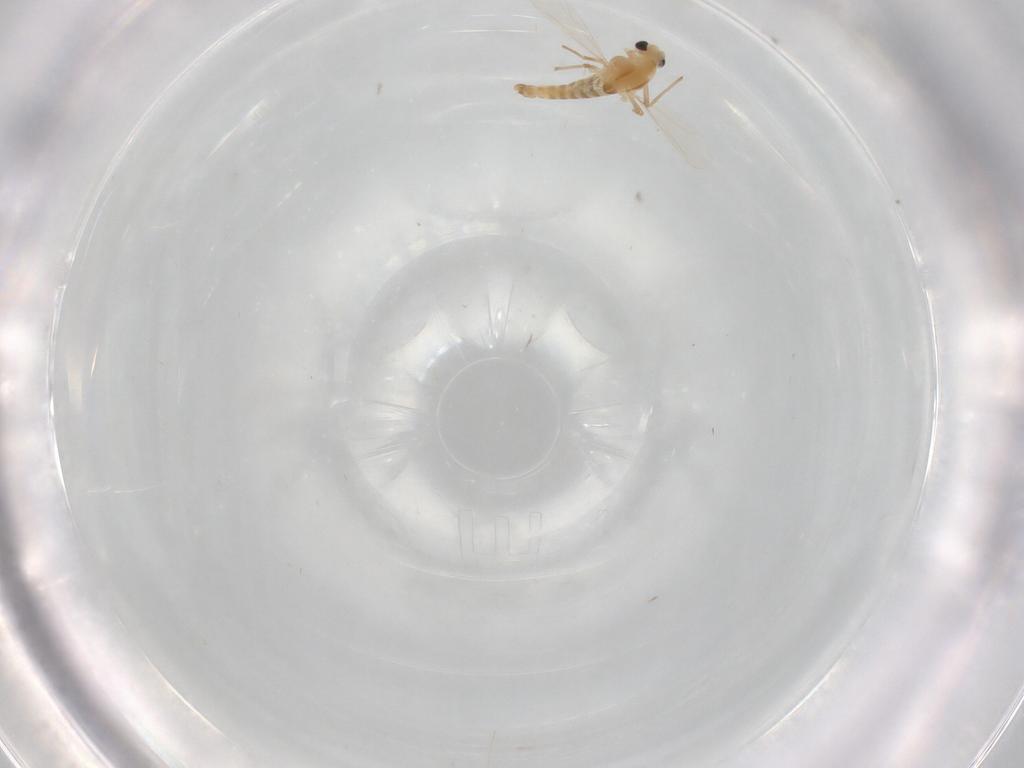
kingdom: Animalia
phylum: Arthropoda
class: Insecta
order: Diptera
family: Chironomidae
